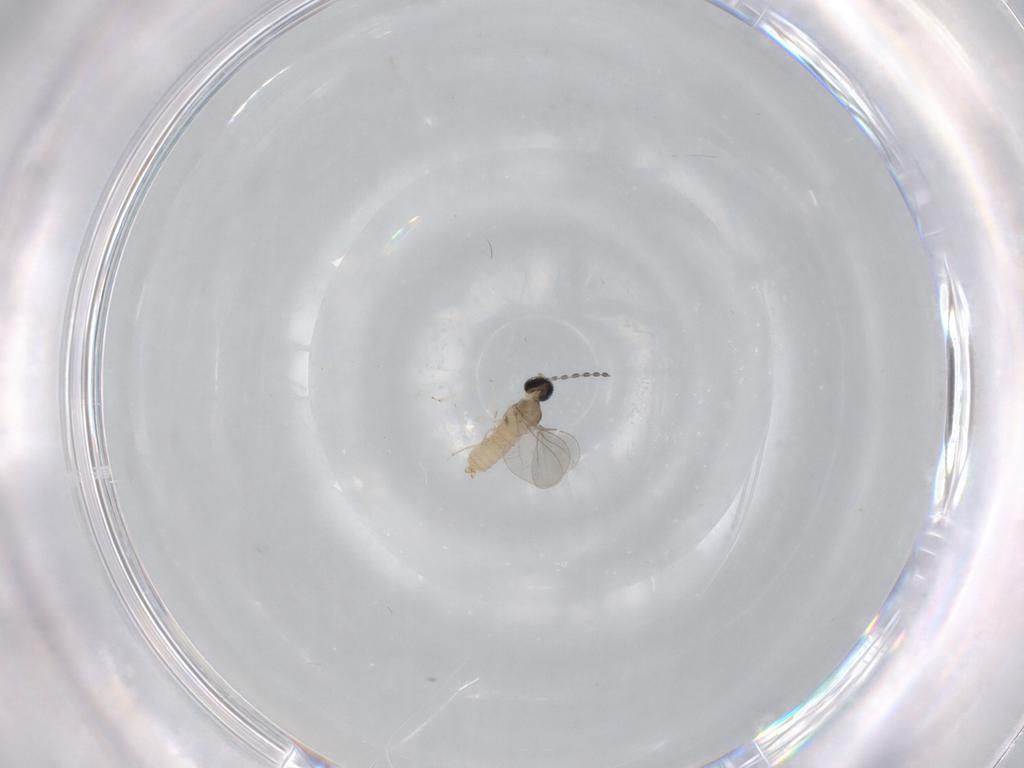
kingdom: Animalia
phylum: Arthropoda
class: Insecta
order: Diptera
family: Cecidomyiidae
